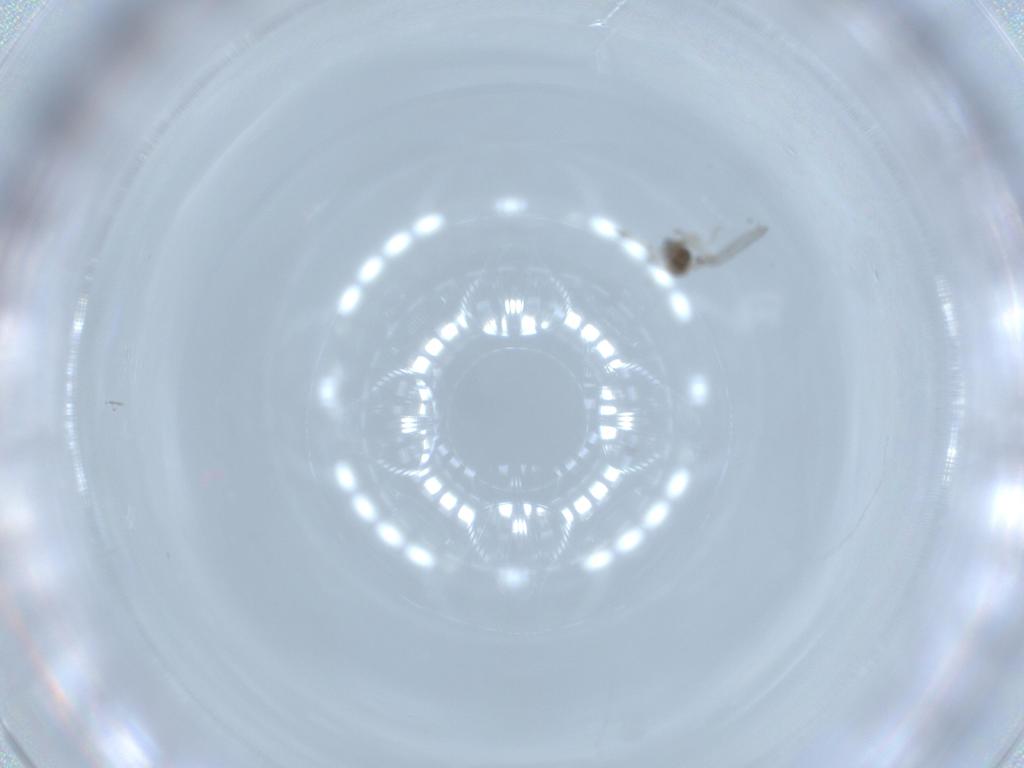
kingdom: Animalia
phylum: Arthropoda
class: Insecta
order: Diptera
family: Cecidomyiidae
